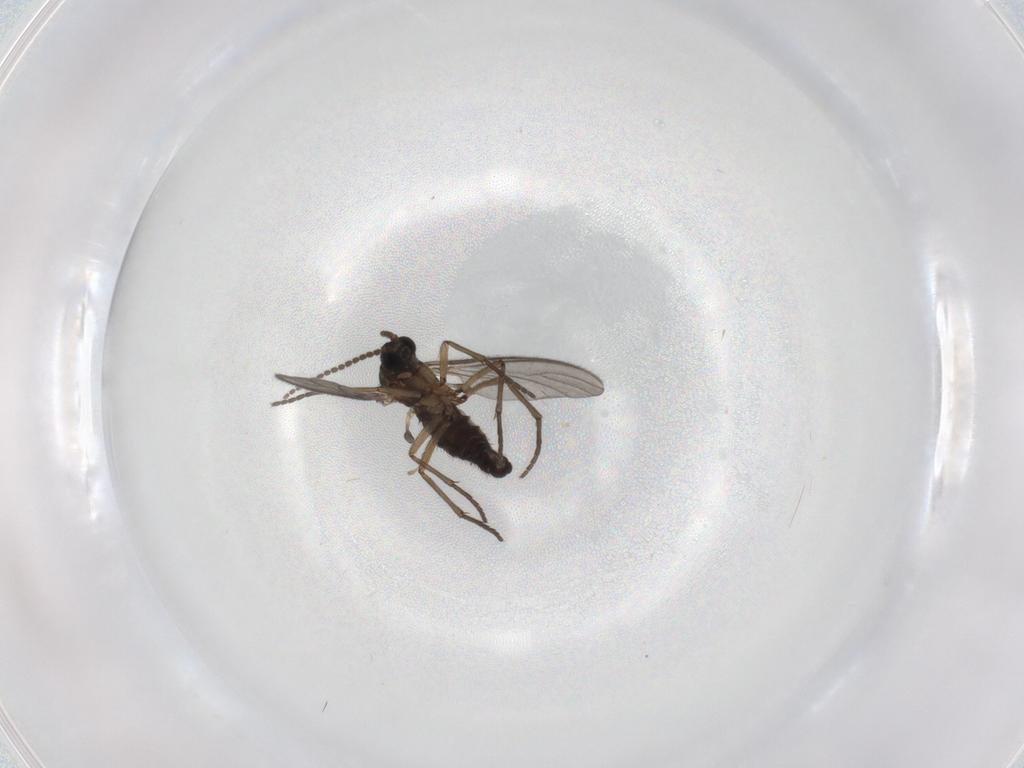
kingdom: Animalia
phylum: Arthropoda
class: Insecta
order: Diptera
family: Sciaridae
